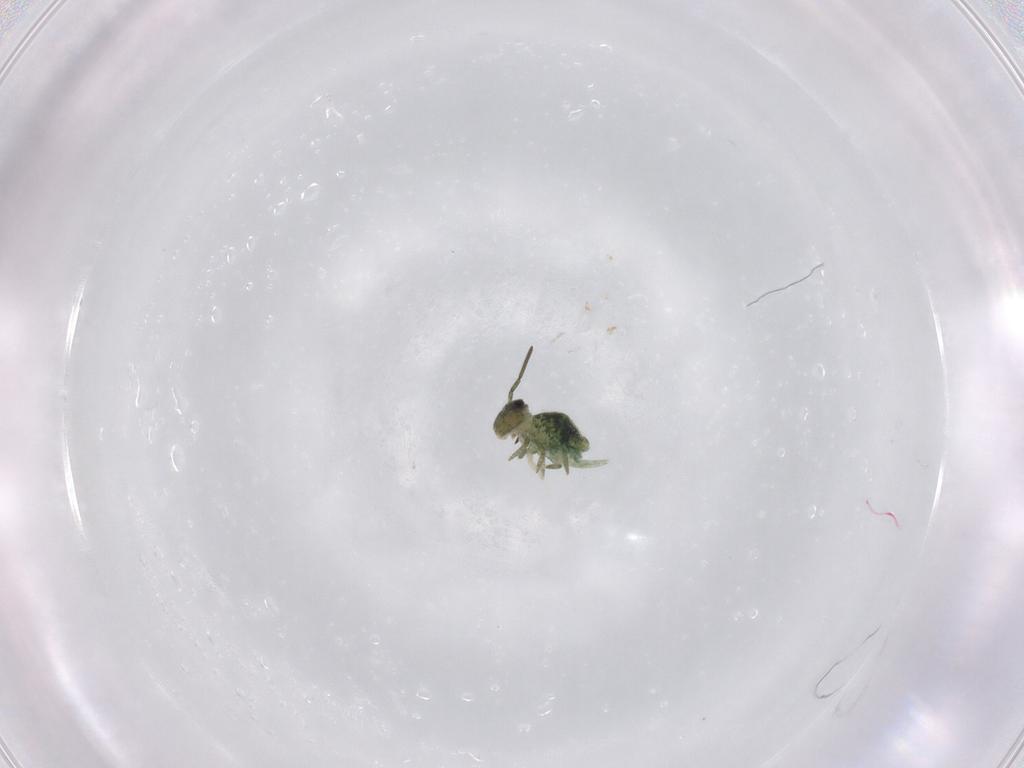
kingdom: Animalia
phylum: Arthropoda
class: Collembola
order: Symphypleona
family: Sminthuridae
